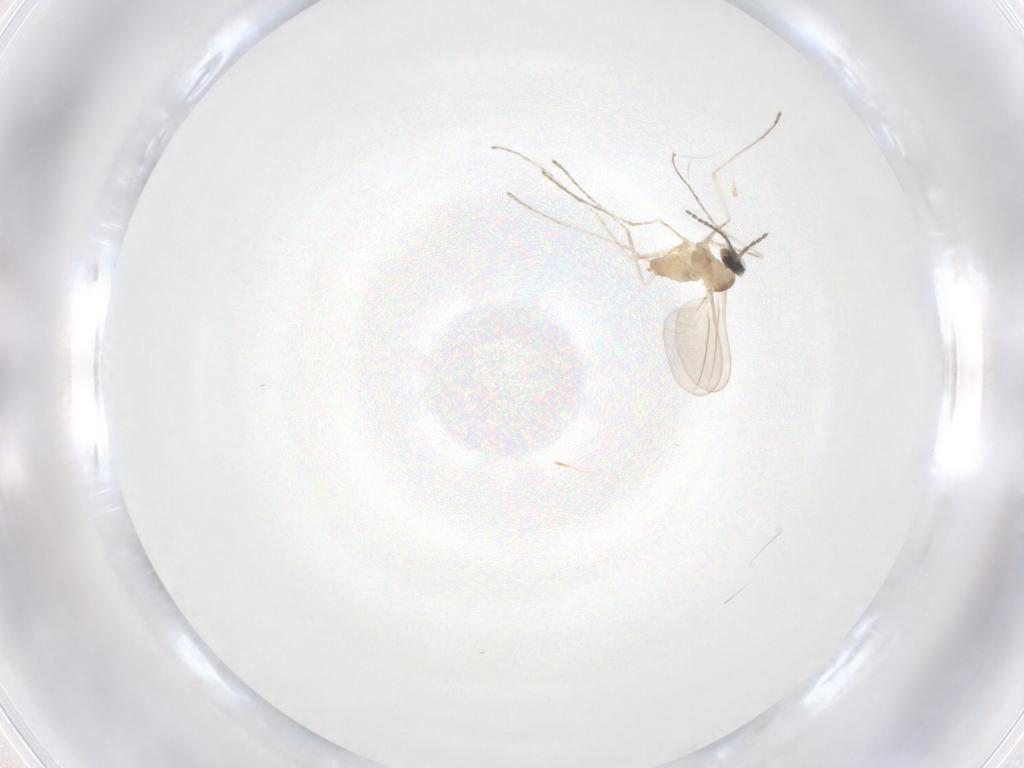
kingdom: Animalia
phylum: Arthropoda
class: Insecta
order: Diptera
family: Cecidomyiidae
